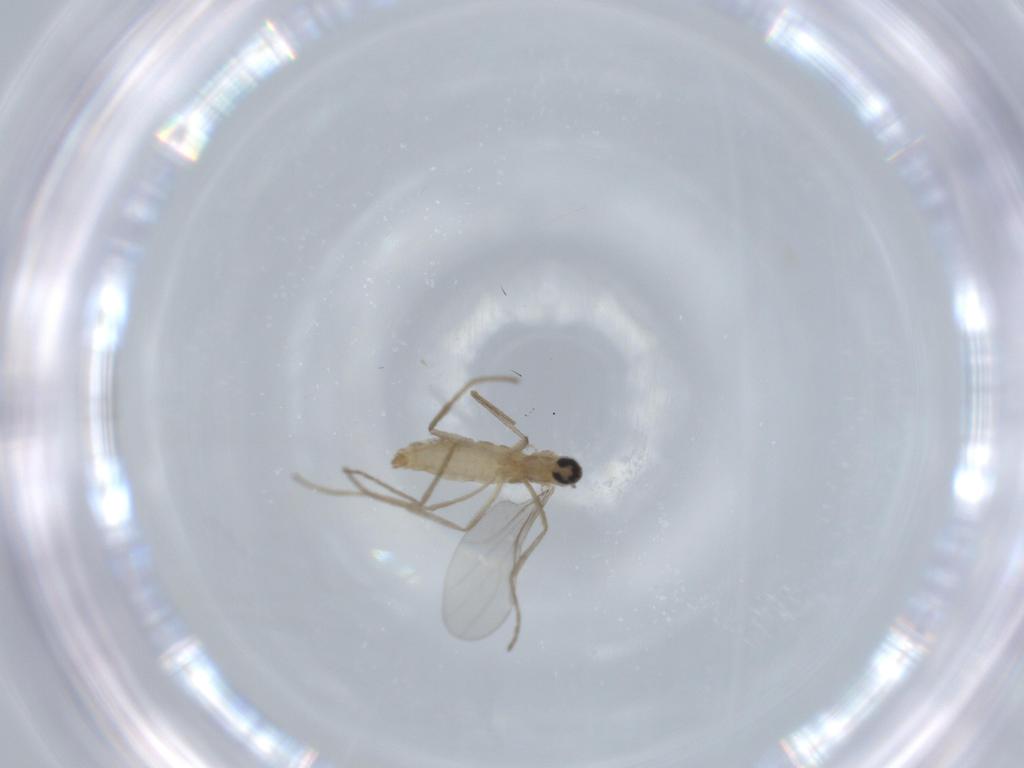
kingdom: Animalia
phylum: Arthropoda
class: Insecta
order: Diptera
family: Cecidomyiidae
